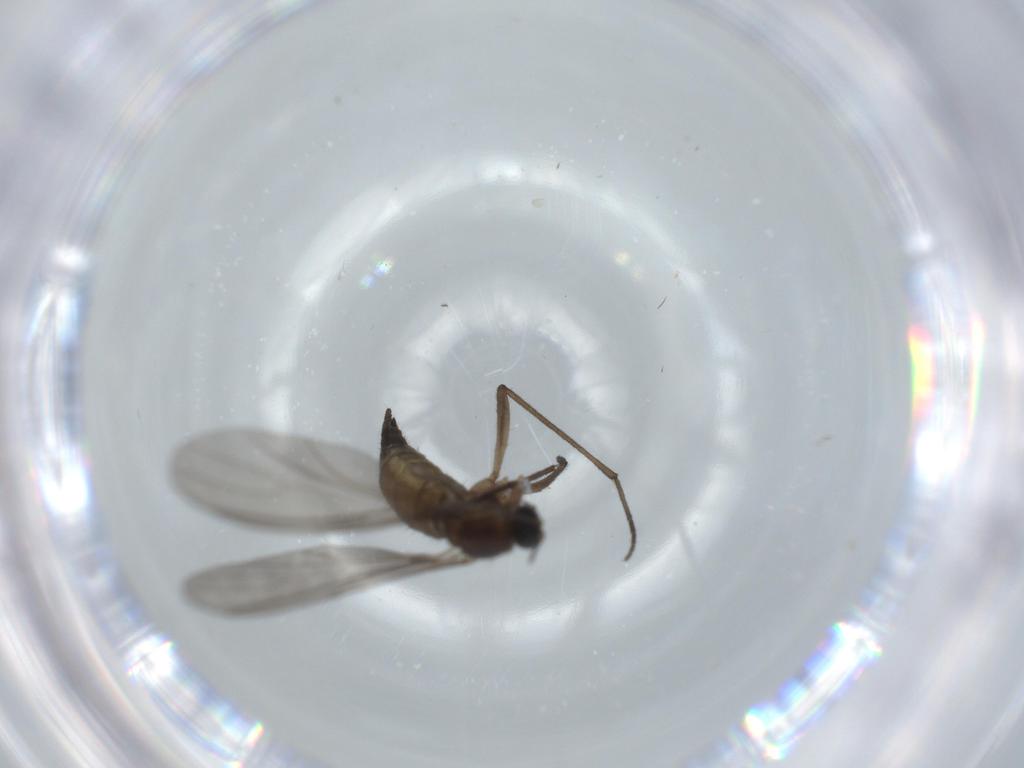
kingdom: Animalia
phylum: Arthropoda
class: Insecta
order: Diptera
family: Sciaridae
